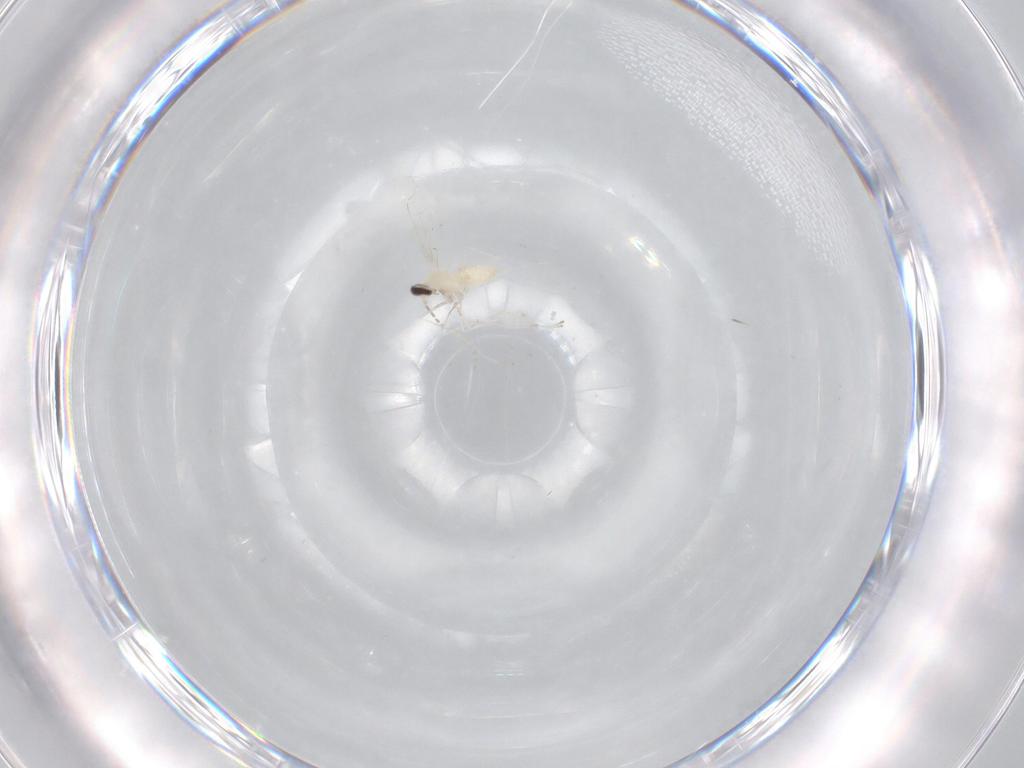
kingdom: Animalia
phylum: Arthropoda
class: Insecta
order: Diptera
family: Cecidomyiidae
